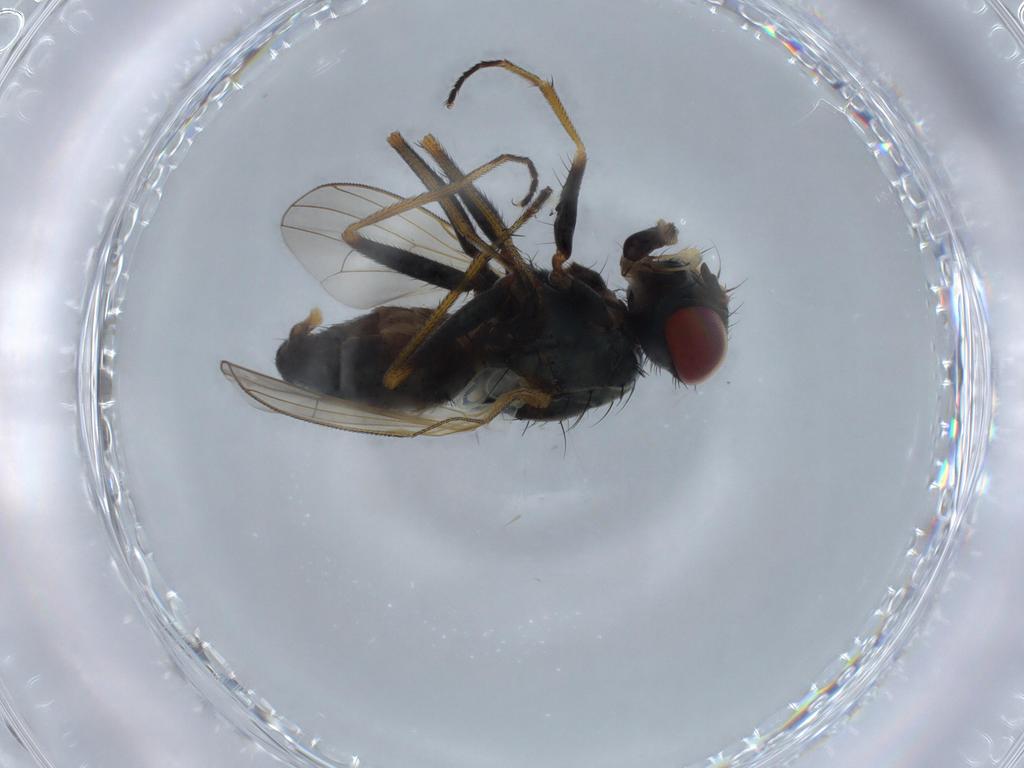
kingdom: Animalia
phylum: Arthropoda
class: Insecta
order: Diptera
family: Muscidae
